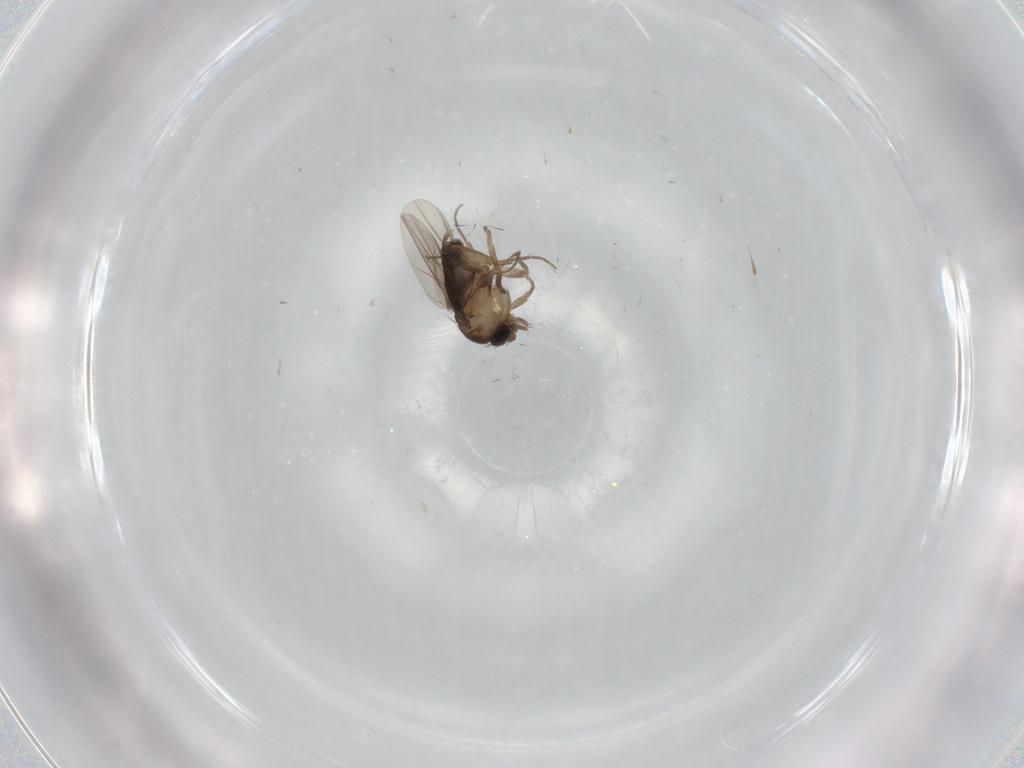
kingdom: Animalia
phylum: Arthropoda
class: Insecta
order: Diptera
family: Phoridae
